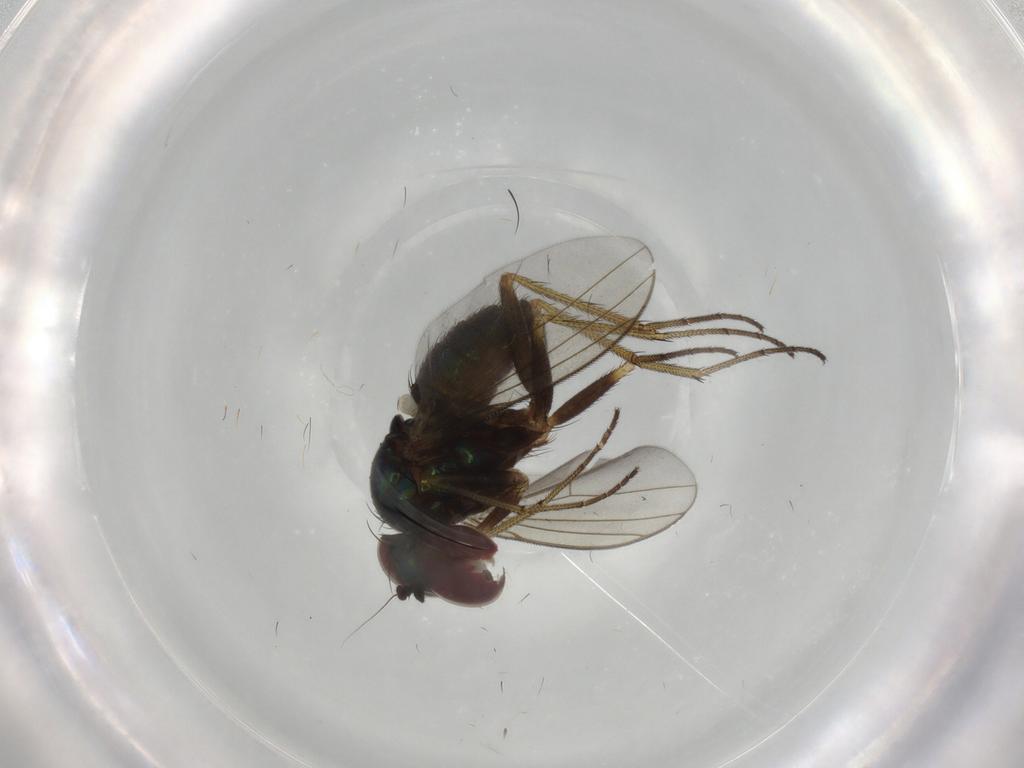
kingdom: Animalia
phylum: Arthropoda
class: Insecta
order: Diptera
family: Dolichopodidae
